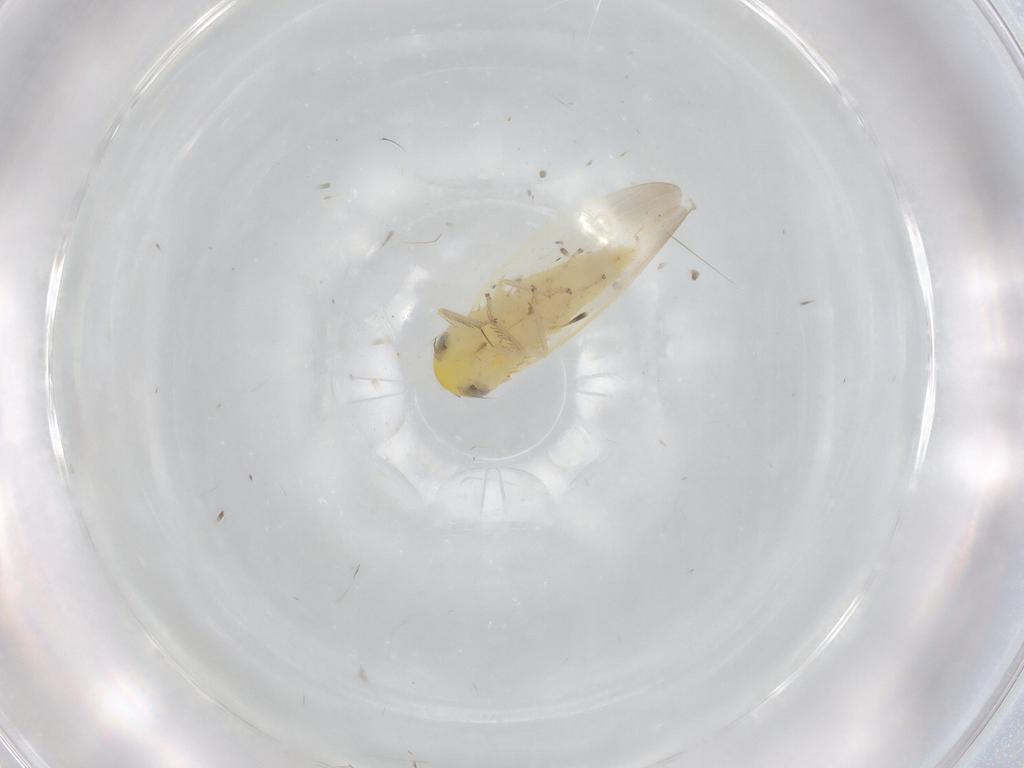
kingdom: Animalia
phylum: Arthropoda
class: Insecta
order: Hemiptera
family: Cicadellidae
